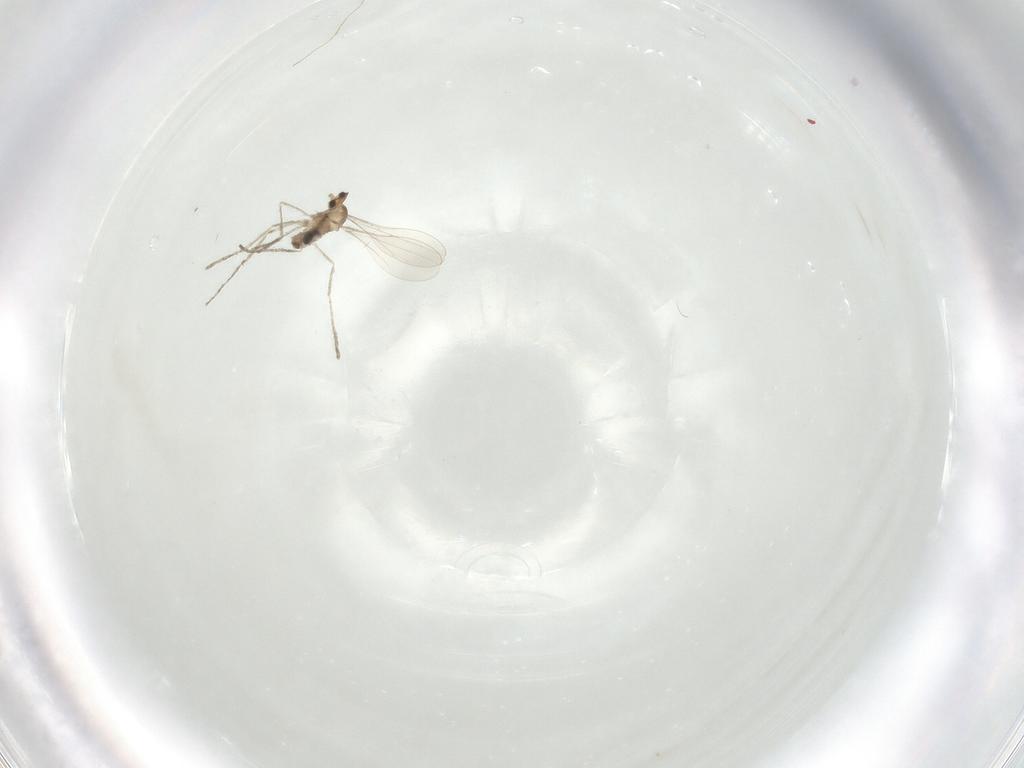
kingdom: Animalia
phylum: Arthropoda
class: Insecta
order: Diptera
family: Cecidomyiidae
